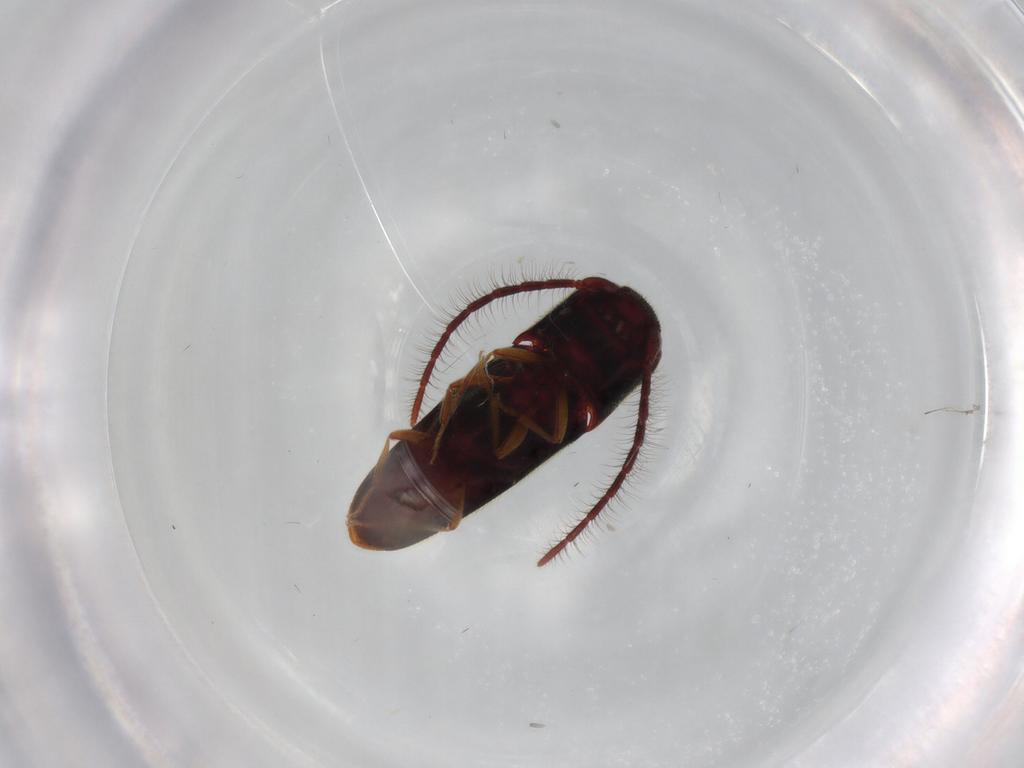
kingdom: Animalia
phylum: Arthropoda
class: Insecta
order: Coleoptera
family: Eucnemidae
